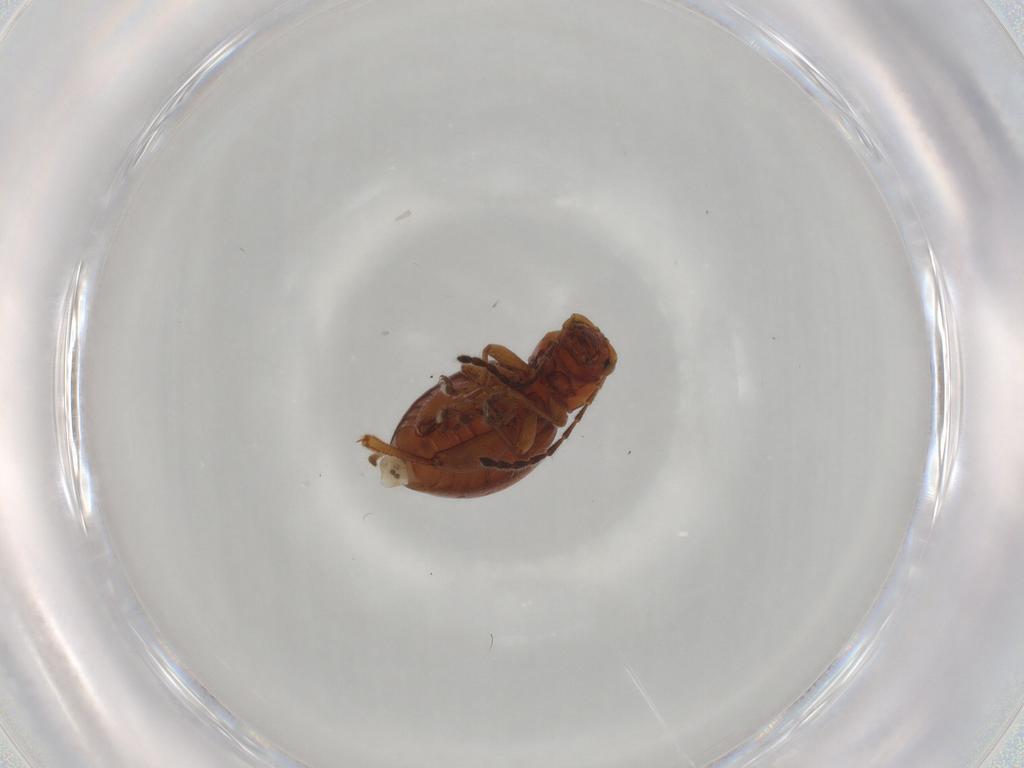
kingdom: Animalia
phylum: Arthropoda
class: Insecta
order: Coleoptera
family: Chrysomelidae
